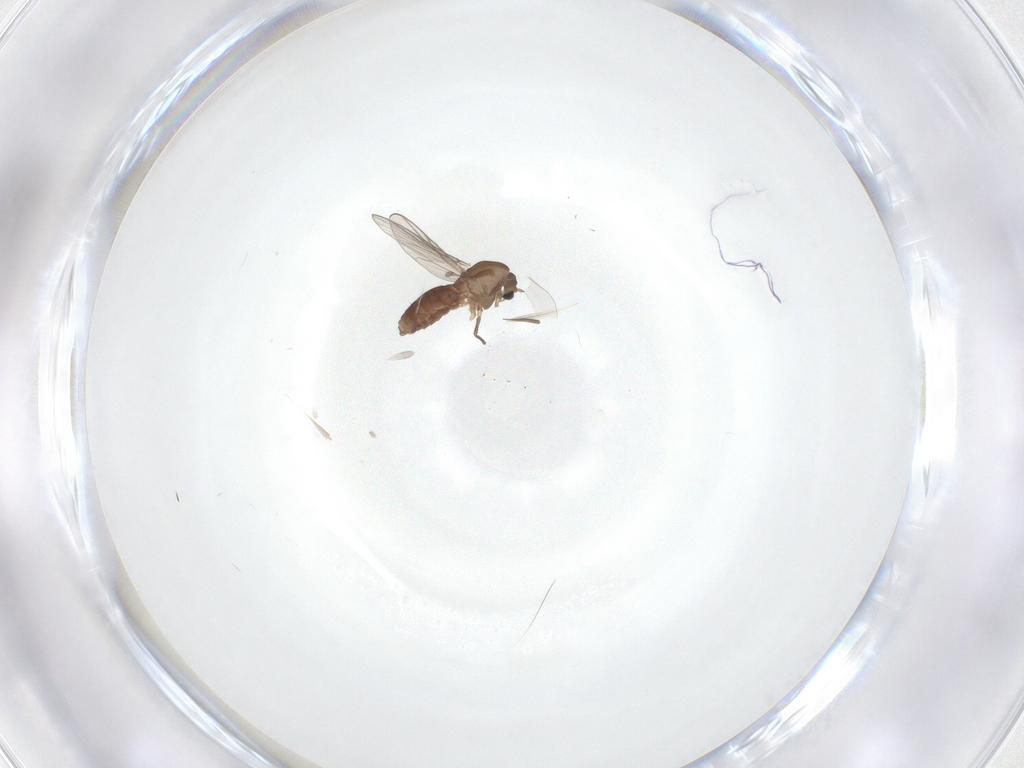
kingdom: Animalia
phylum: Arthropoda
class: Insecta
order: Diptera
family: Chironomidae
